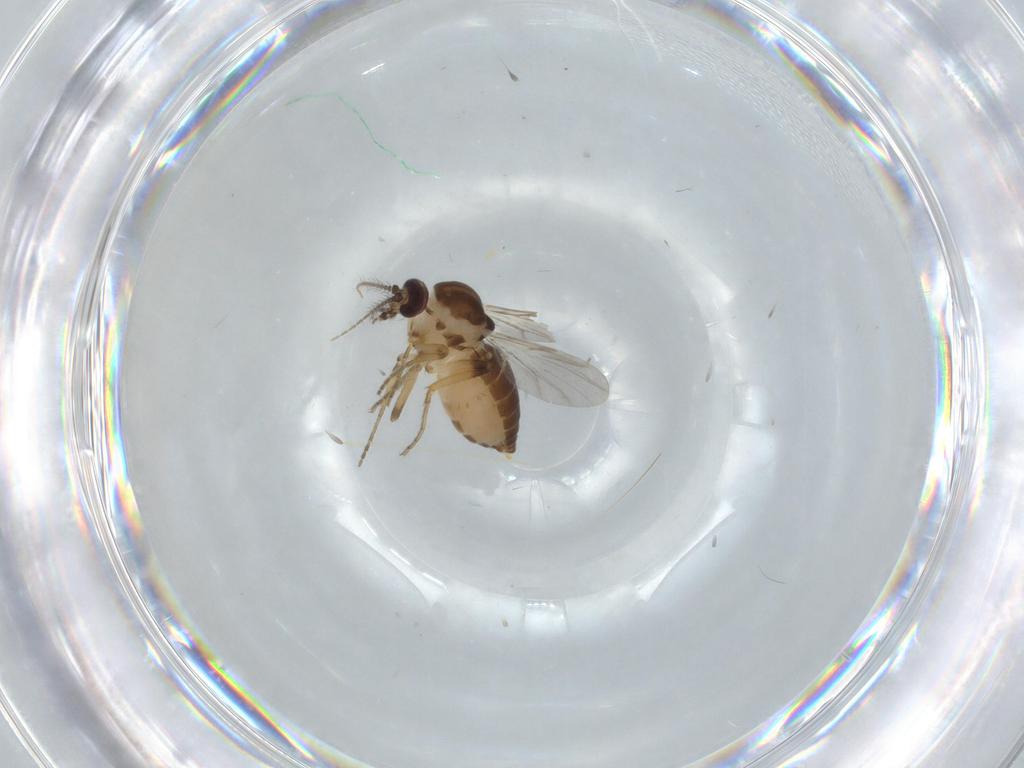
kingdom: Animalia
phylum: Arthropoda
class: Insecta
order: Diptera
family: Ceratopogonidae
